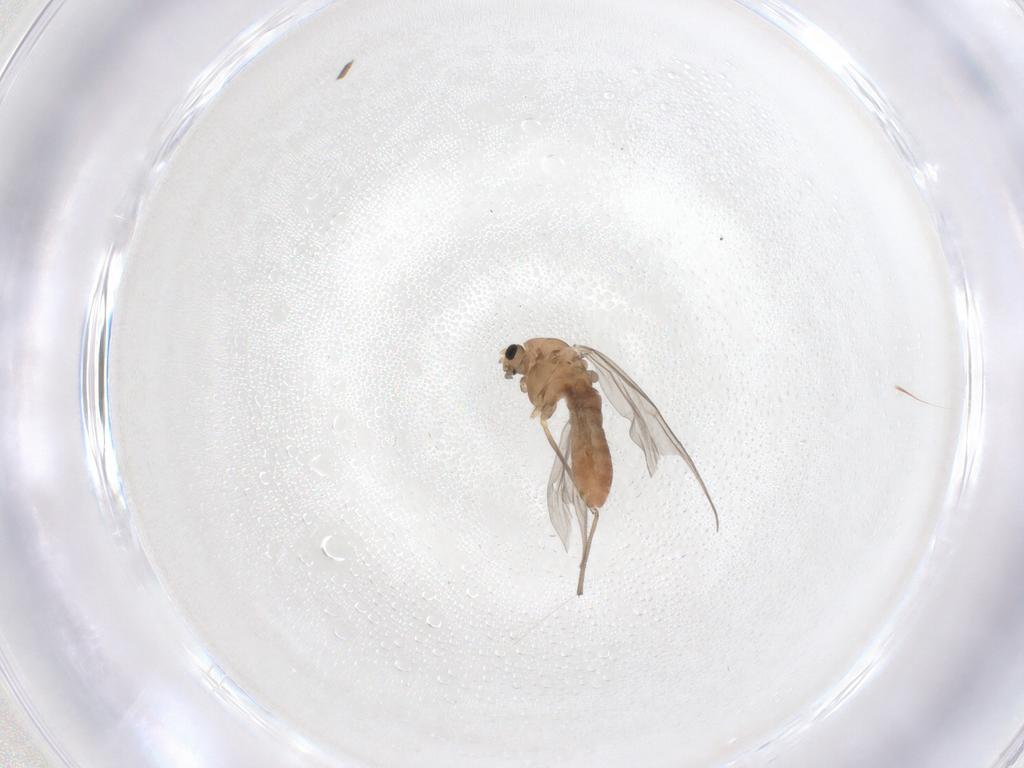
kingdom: Animalia
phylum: Arthropoda
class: Insecta
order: Diptera
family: Chironomidae
